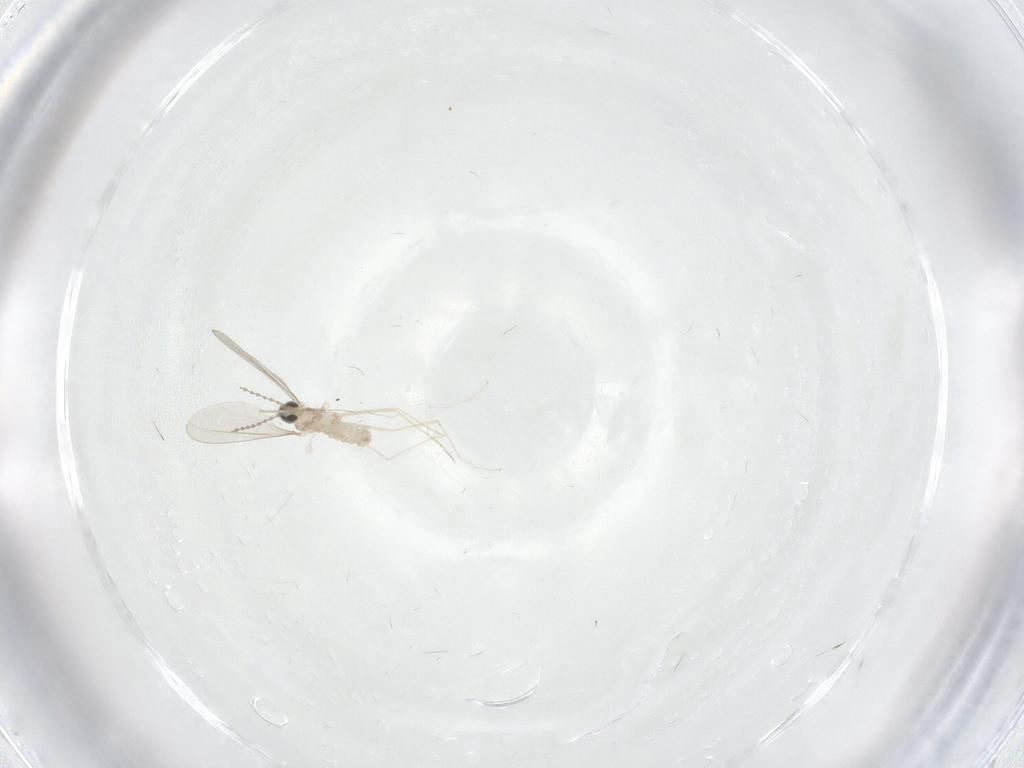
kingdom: Animalia
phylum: Arthropoda
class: Insecta
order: Diptera
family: Cecidomyiidae
